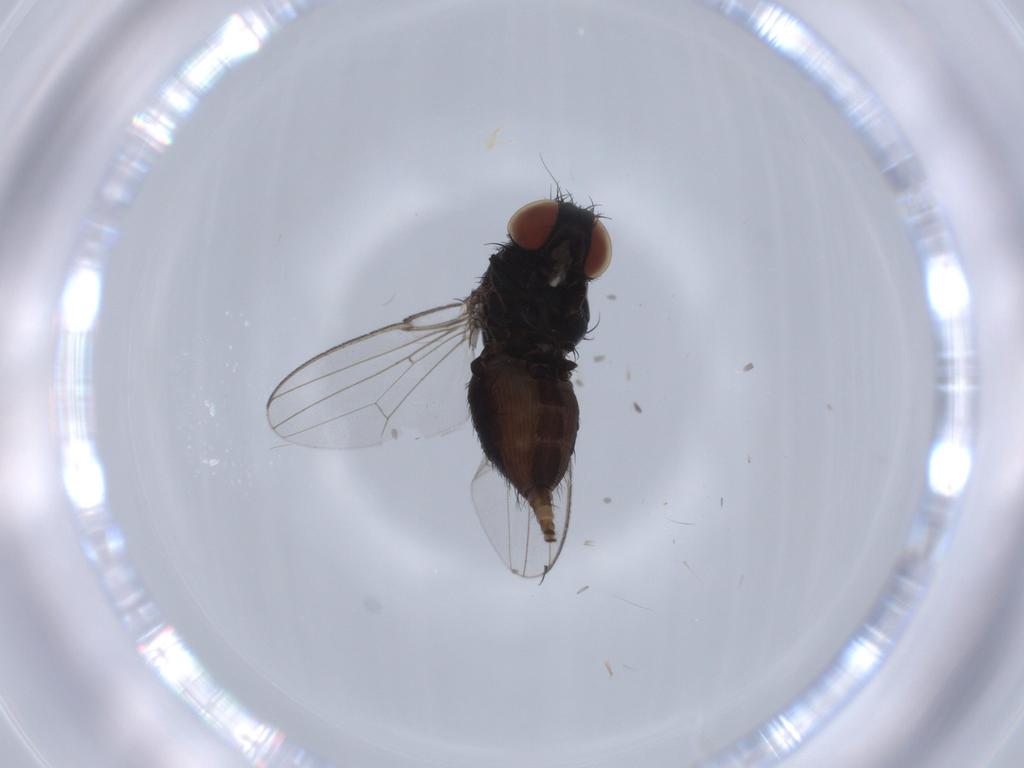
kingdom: Animalia
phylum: Arthropoda
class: Insecta
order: Diptera
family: Milichiidae
